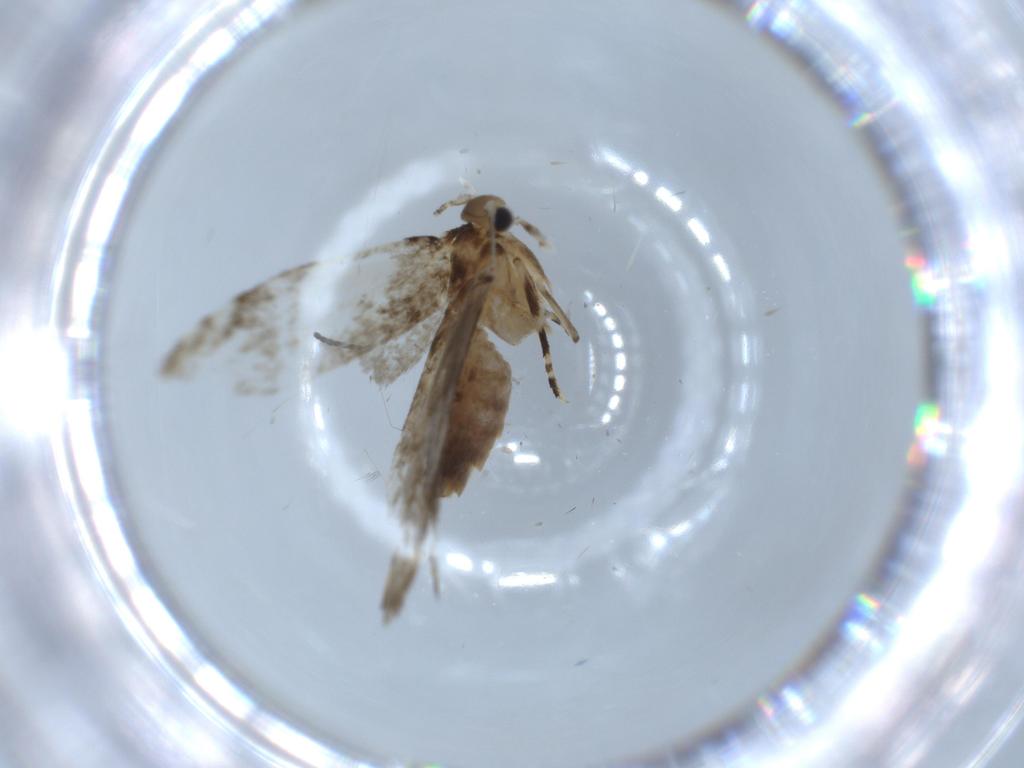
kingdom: Animalia
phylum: Arthropoda
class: Insecta
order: Lepidoptera
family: Tineidae
